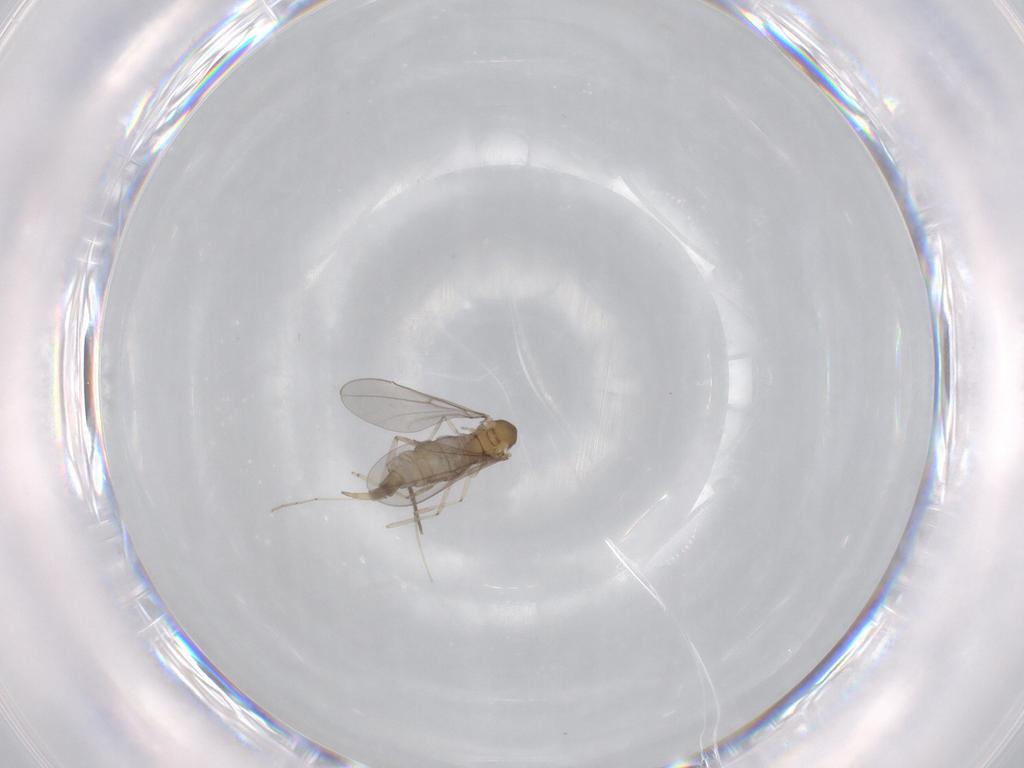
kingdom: Animalia
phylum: Arthropoda
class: Insecta
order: Diptera
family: Cecidomyiidae
